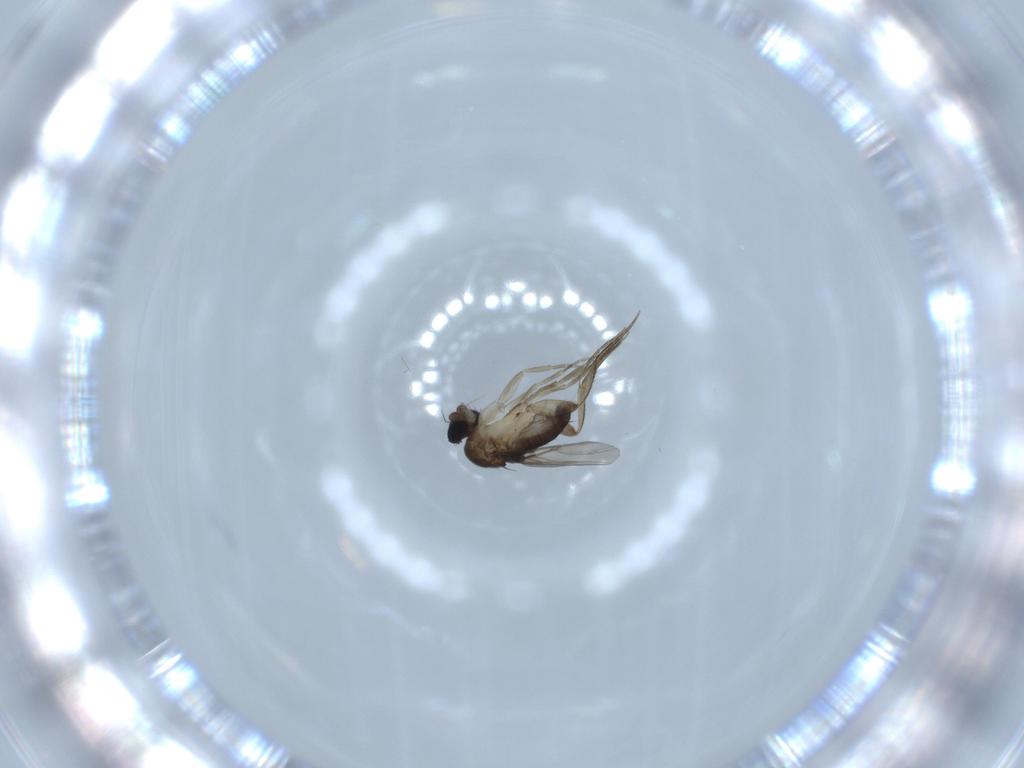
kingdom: Animalia
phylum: Arthropoda
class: Insecta
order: Diptera
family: Phoridae
